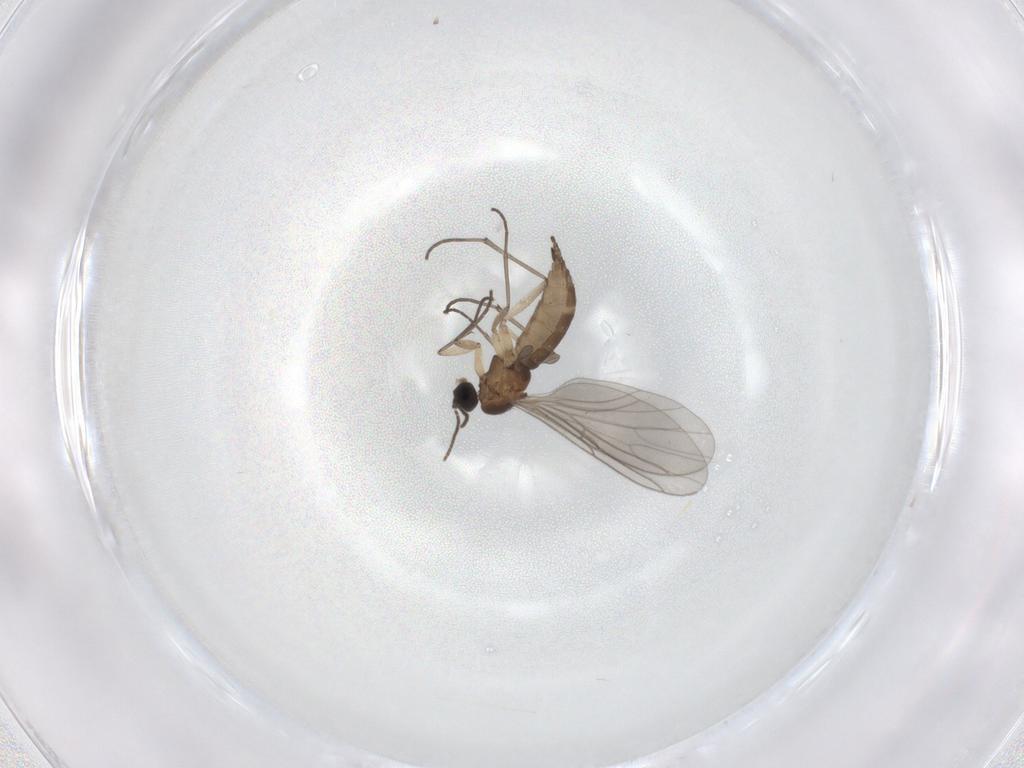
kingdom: Animalia
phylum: Arthropoda
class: Insecta
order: Diptera
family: Sciaridae
